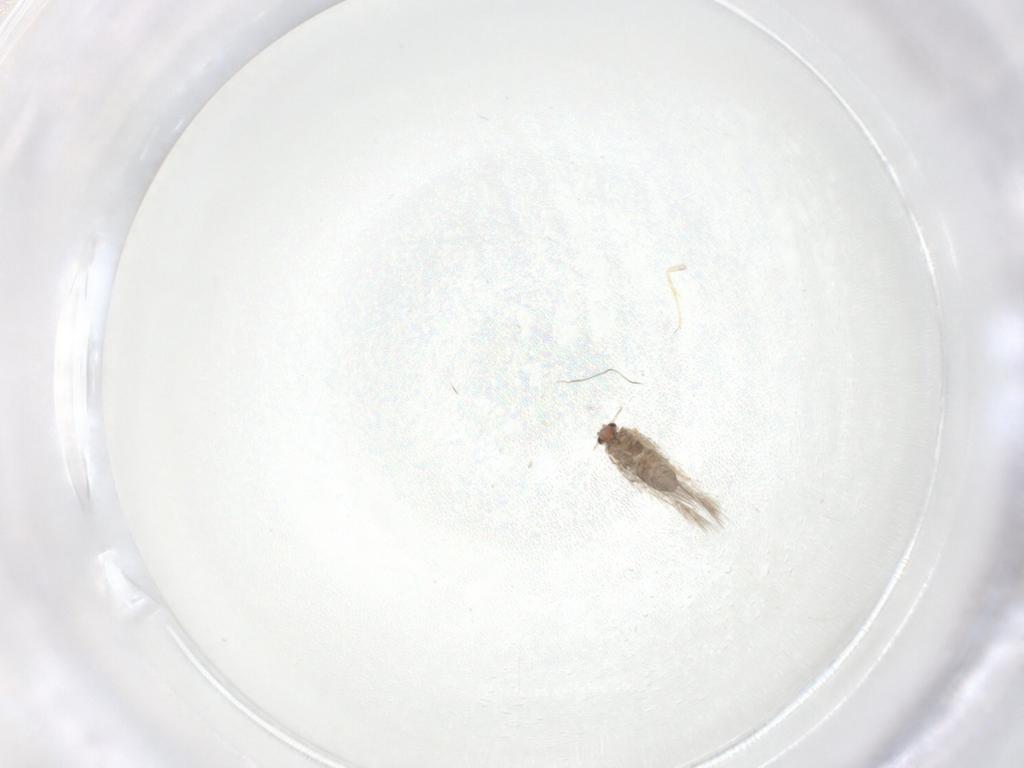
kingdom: Animalia
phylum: Arthropoda
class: Insecta
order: Lepidoptera
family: Nepticulidae
